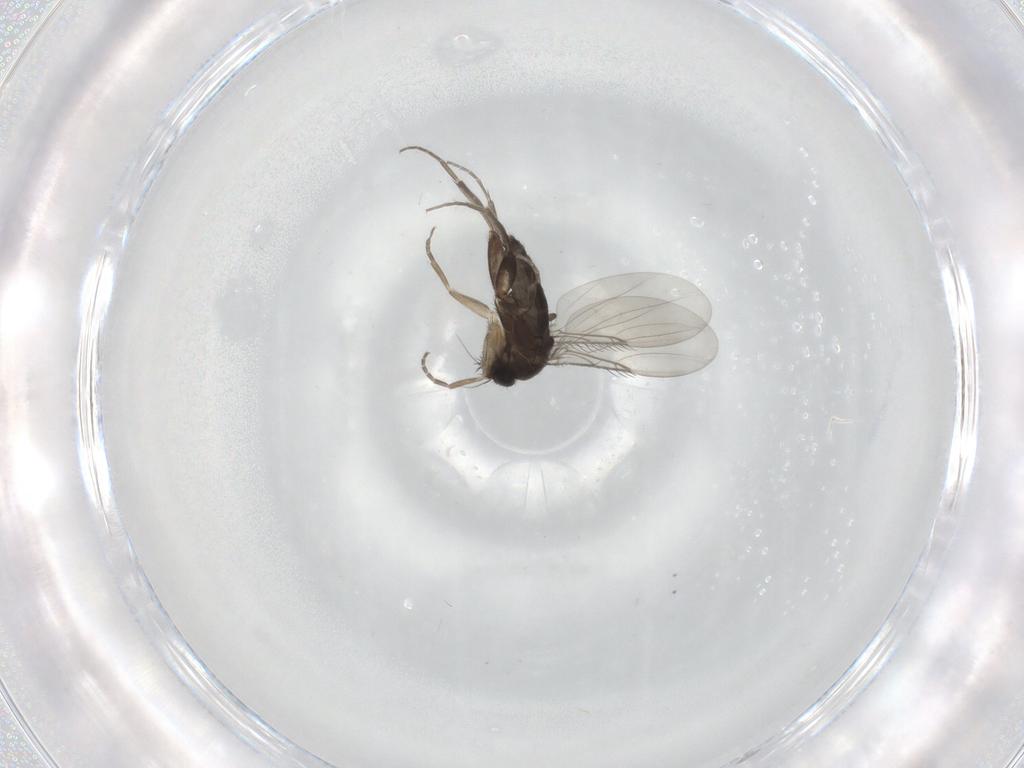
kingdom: Animalia
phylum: Arthropoda
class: Insecta
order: Diptera
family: Phoridae
